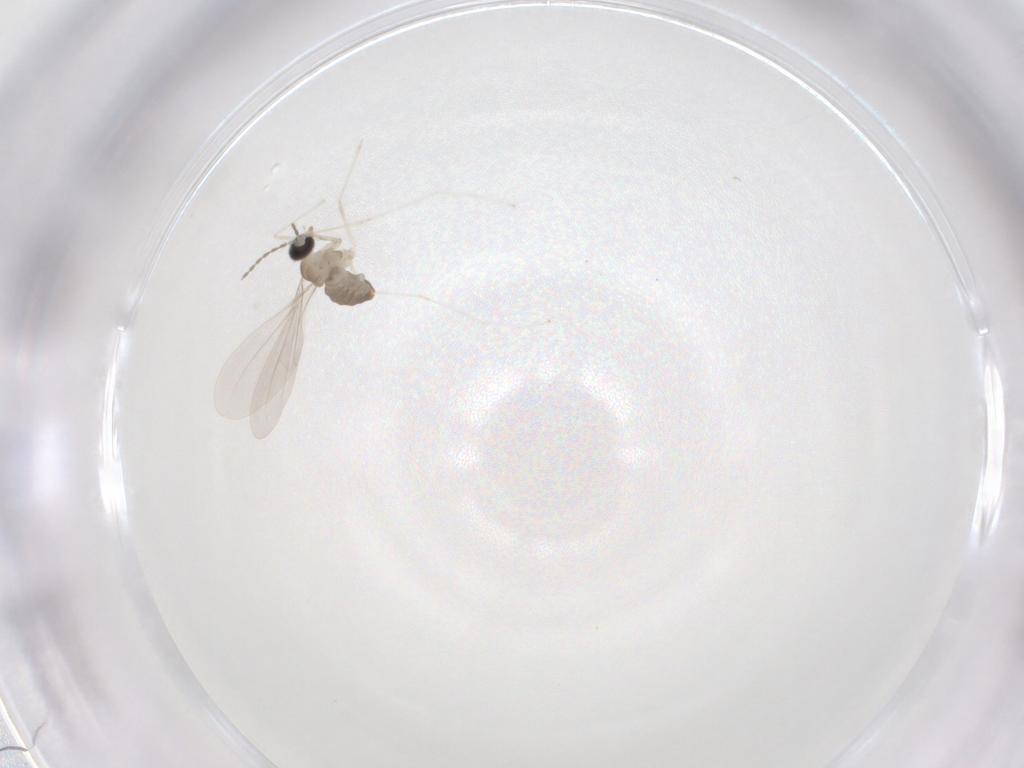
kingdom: Animalia
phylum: Arthropoda
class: Insecta
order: Diptera
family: Cecidomyiidae
